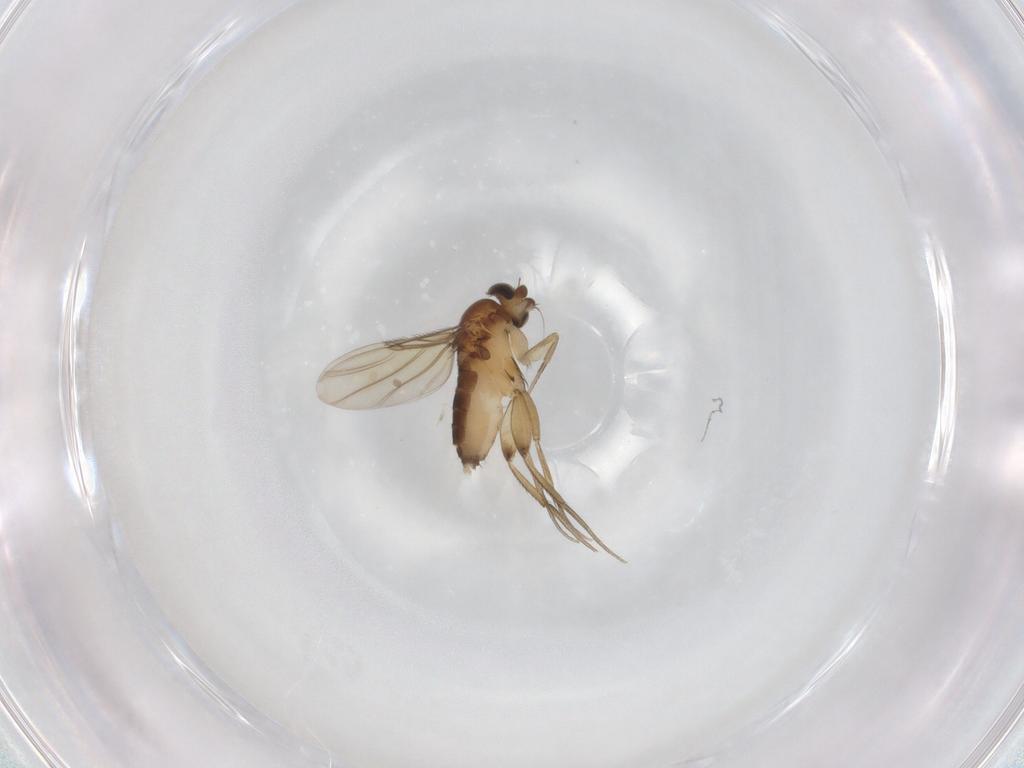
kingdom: Animalia
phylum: Arthropoda
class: Insecta
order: Diptera
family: Phoridae
